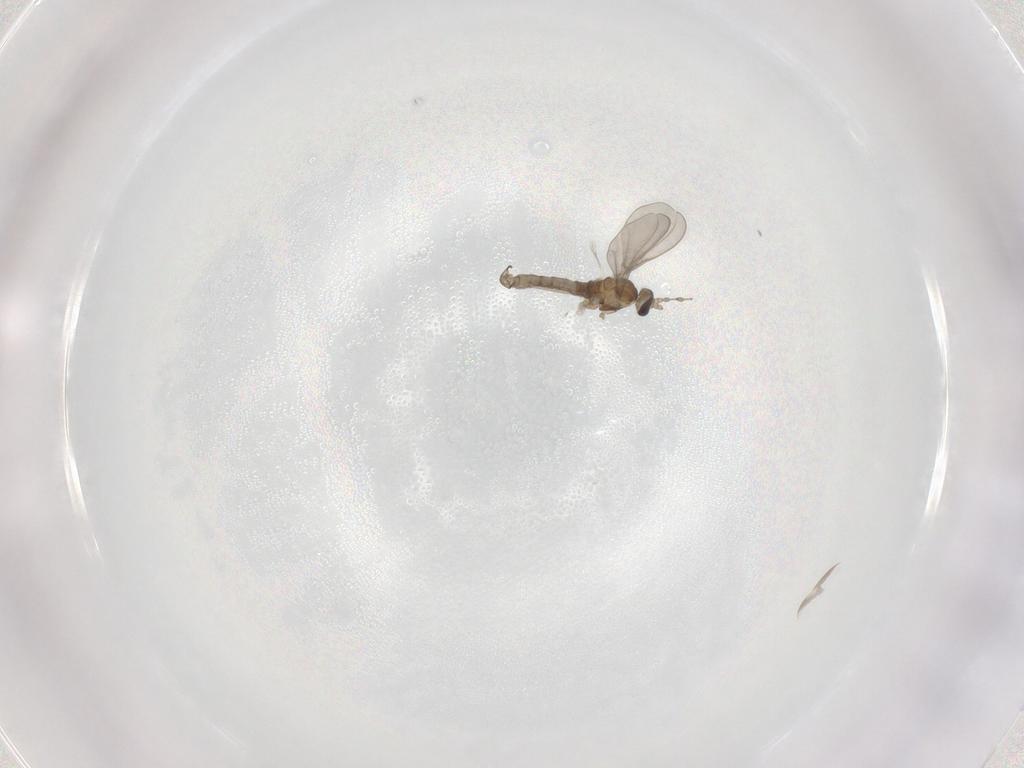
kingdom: Animalia
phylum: Arthropoda
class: Insecta
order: Diptera
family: Cecidomyiidae
